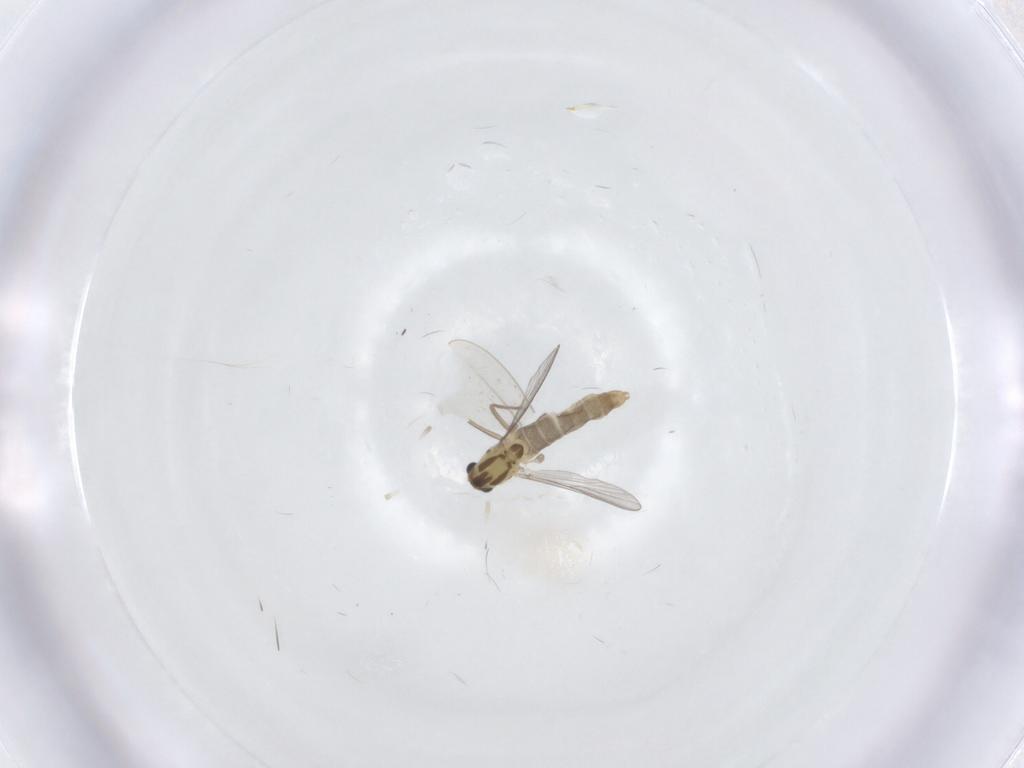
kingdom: Animalia
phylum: Arthropoda
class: Insecta
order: Diptera
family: Chironomidae
